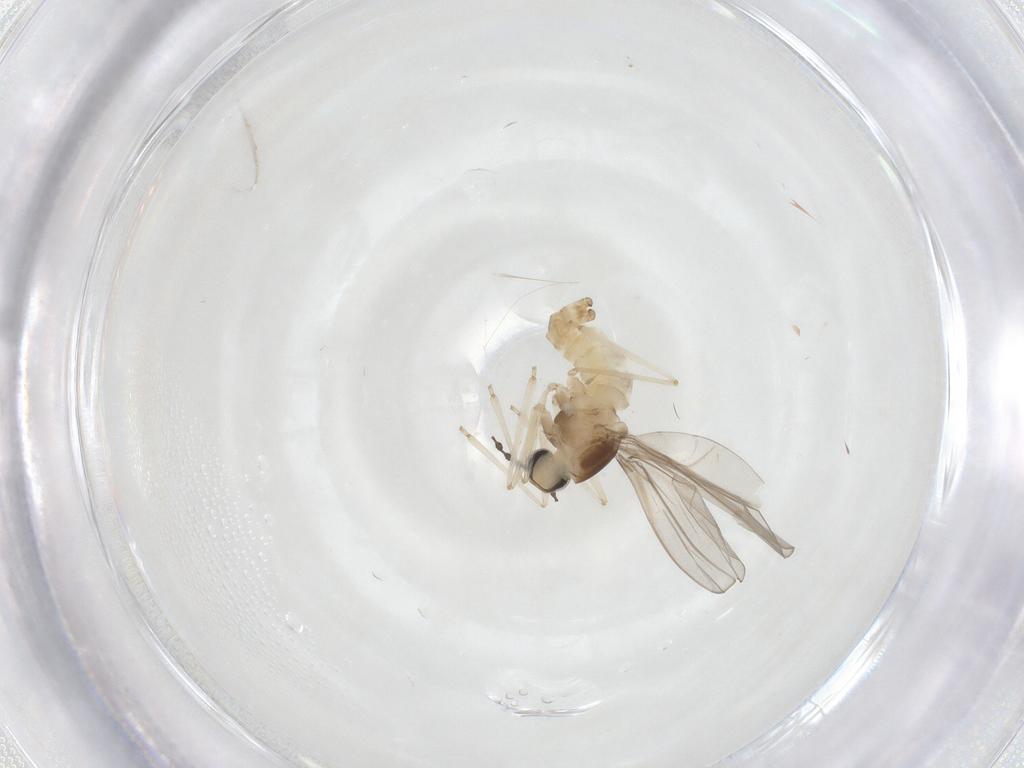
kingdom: Animalia
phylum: Arthropoda
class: Insecta
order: Diptera
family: Cecidomyiidae
